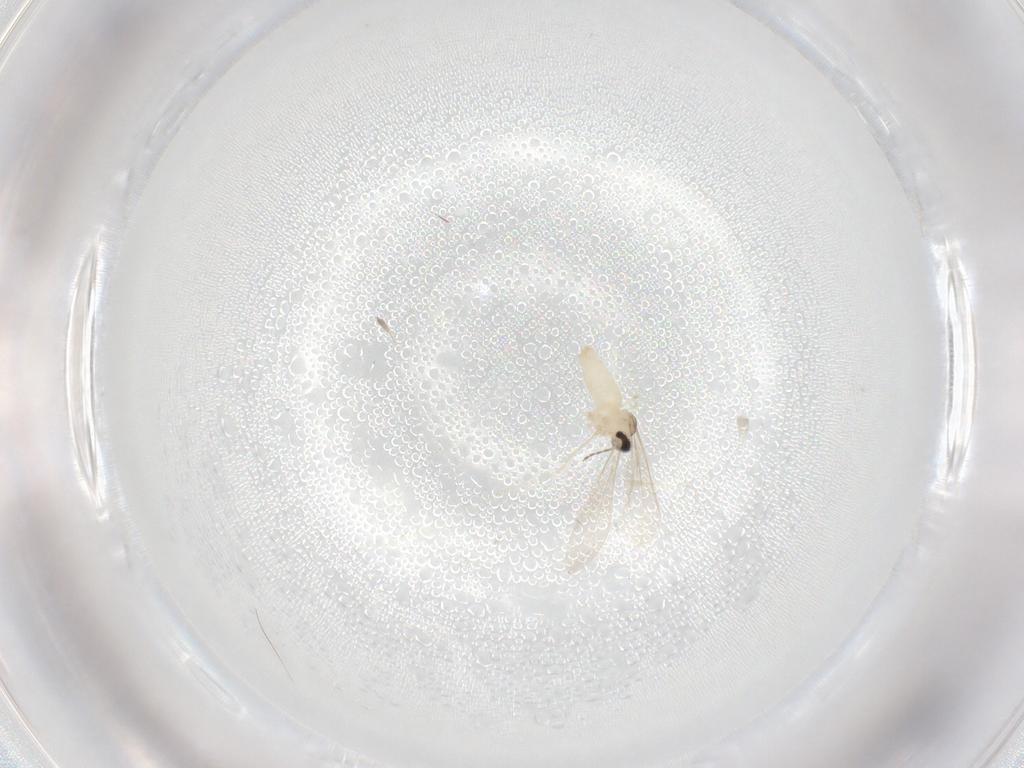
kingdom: Animalia
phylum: Arthropoda
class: Insecta
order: Diptera
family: Cecidomyiidae
